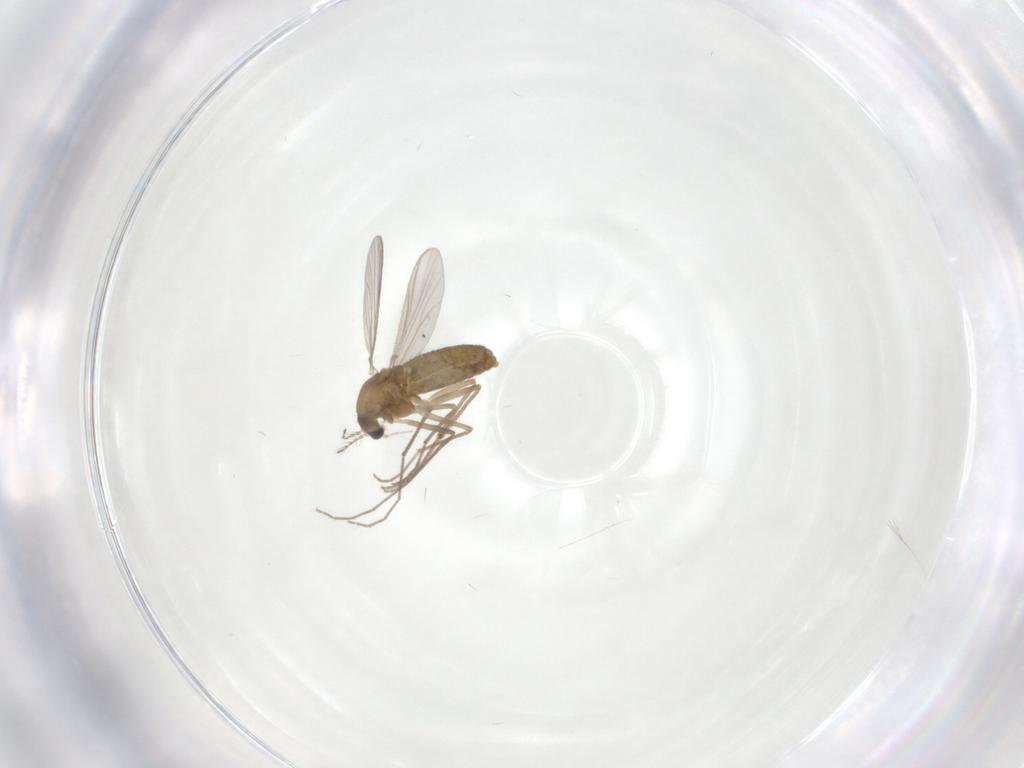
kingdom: Animalia
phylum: Arthropoda
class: Insecta
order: Diptera
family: Chironomidae
